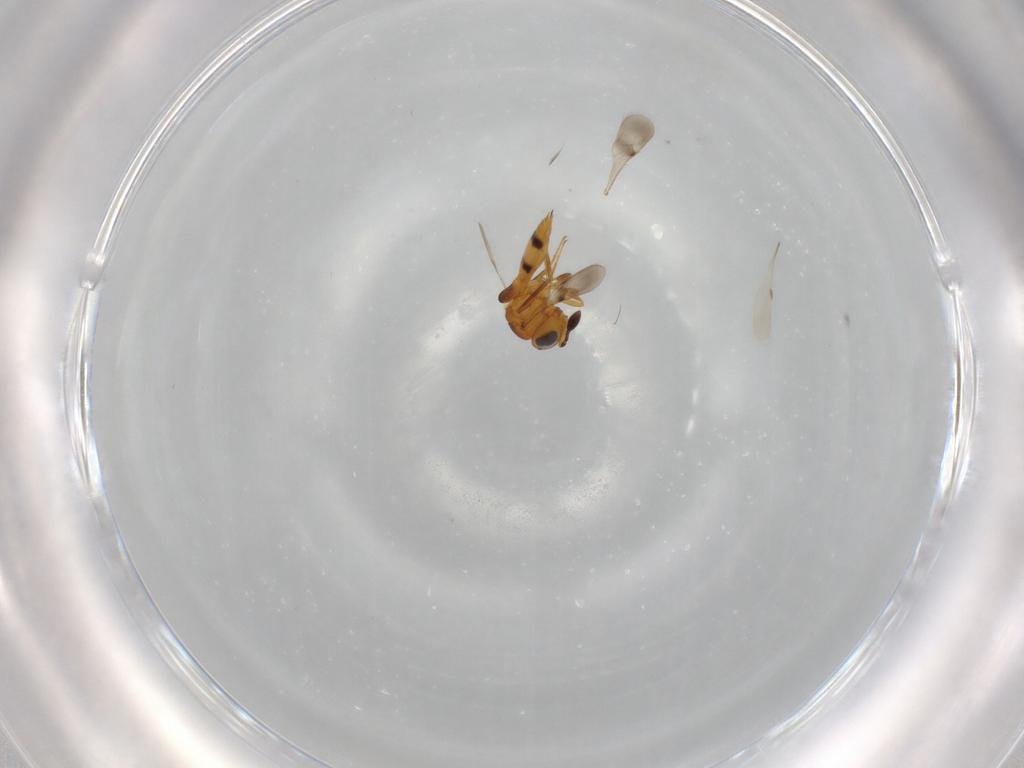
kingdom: Animalia
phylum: Arthropoda
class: Insecta
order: Hymenoptera
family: Scelionidae
